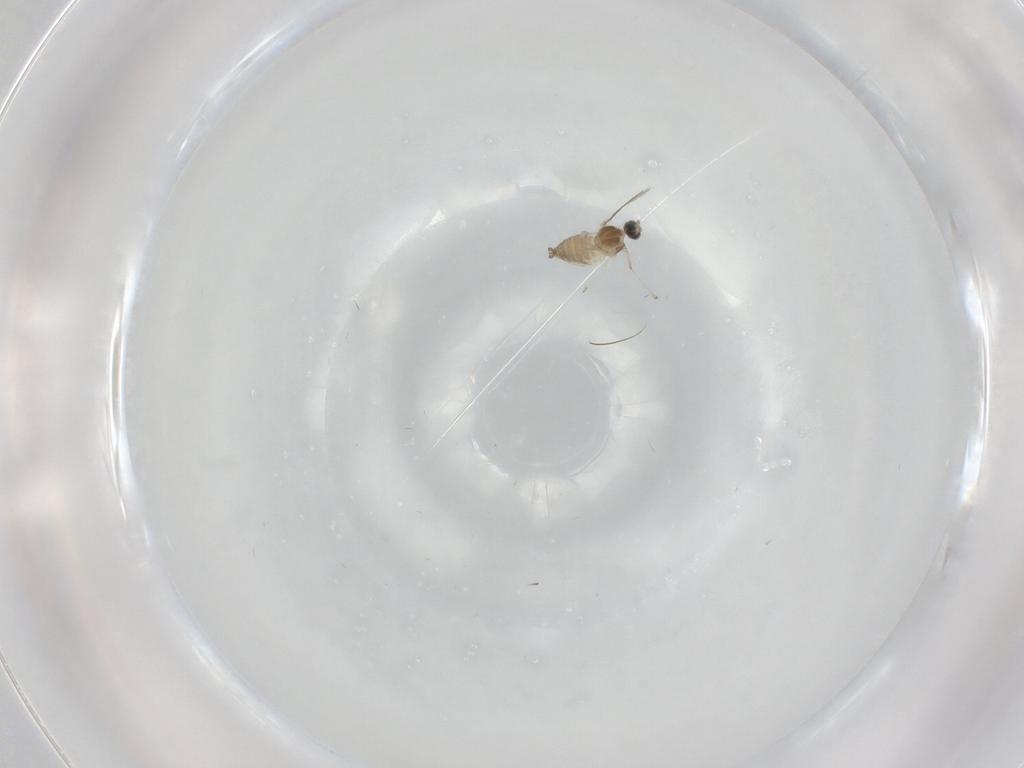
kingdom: Animalia
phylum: Arthropoda
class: Insecta
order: Diptera
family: Cecidomyiidae
